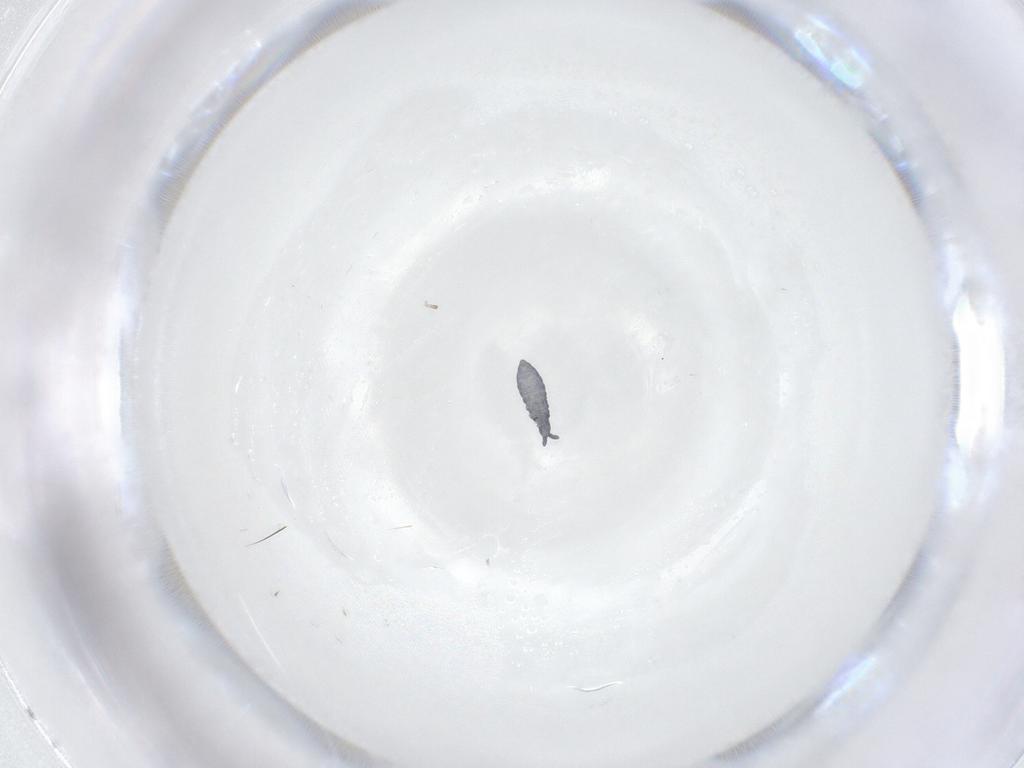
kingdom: Animalia
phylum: Arthropoda
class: Collembola
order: Poduromorpha
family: Hypogastruridae
